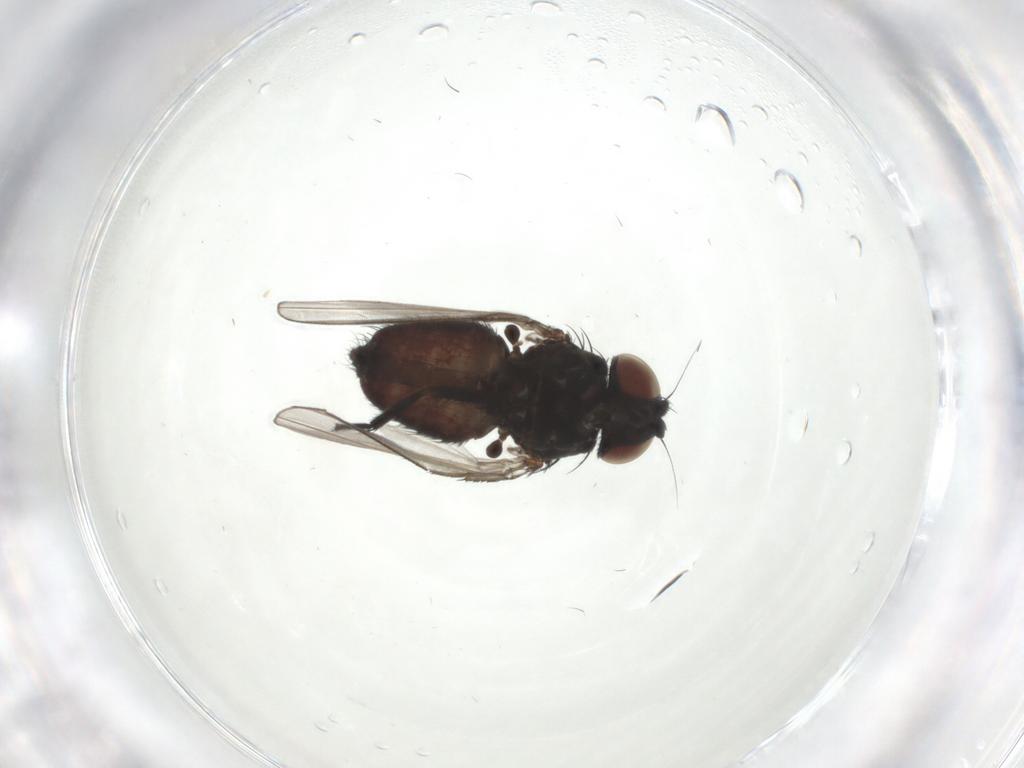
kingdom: Animalia
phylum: Arthropoda
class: Insecta
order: Diptera
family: Milichiidae
